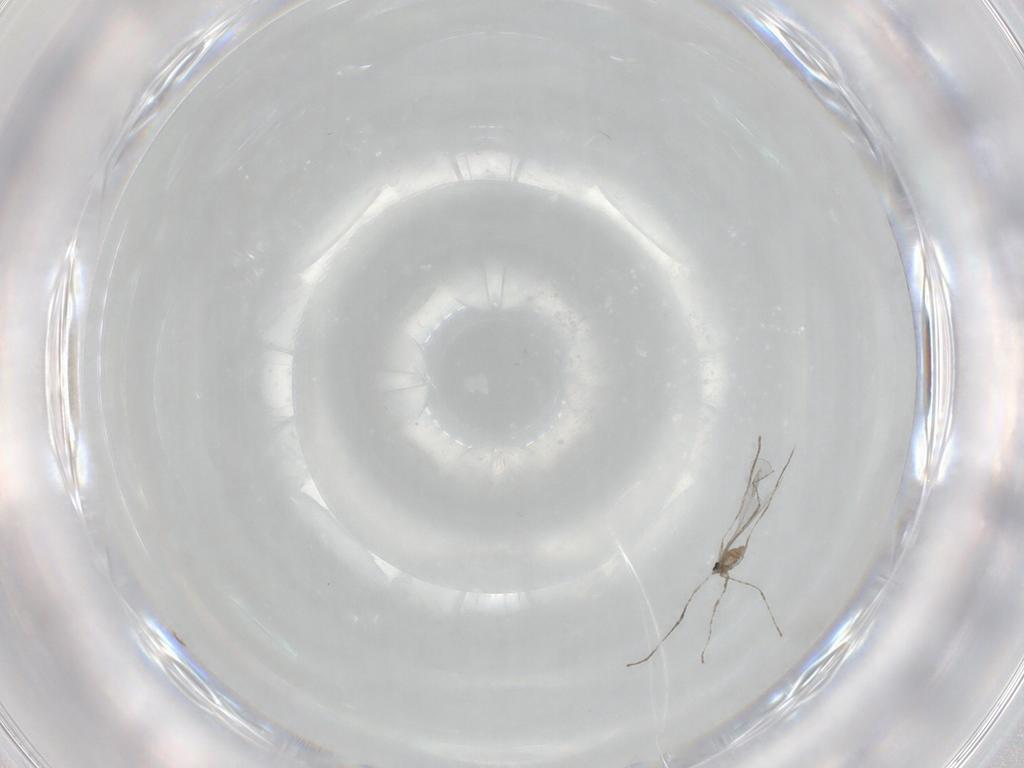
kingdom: Animalia
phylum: Arthropoda
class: Insecta
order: Diptera
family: Cecidomyiidae
